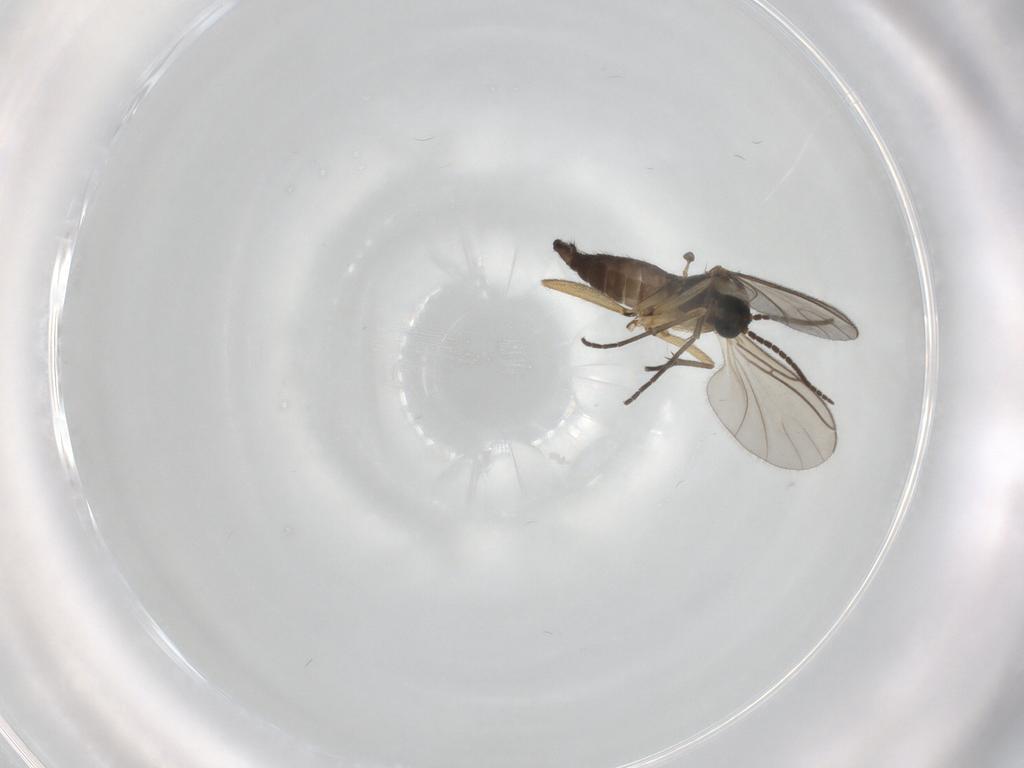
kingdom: Animalia
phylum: Arthropoda
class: Insecta
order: Diptera
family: Sciaridae
